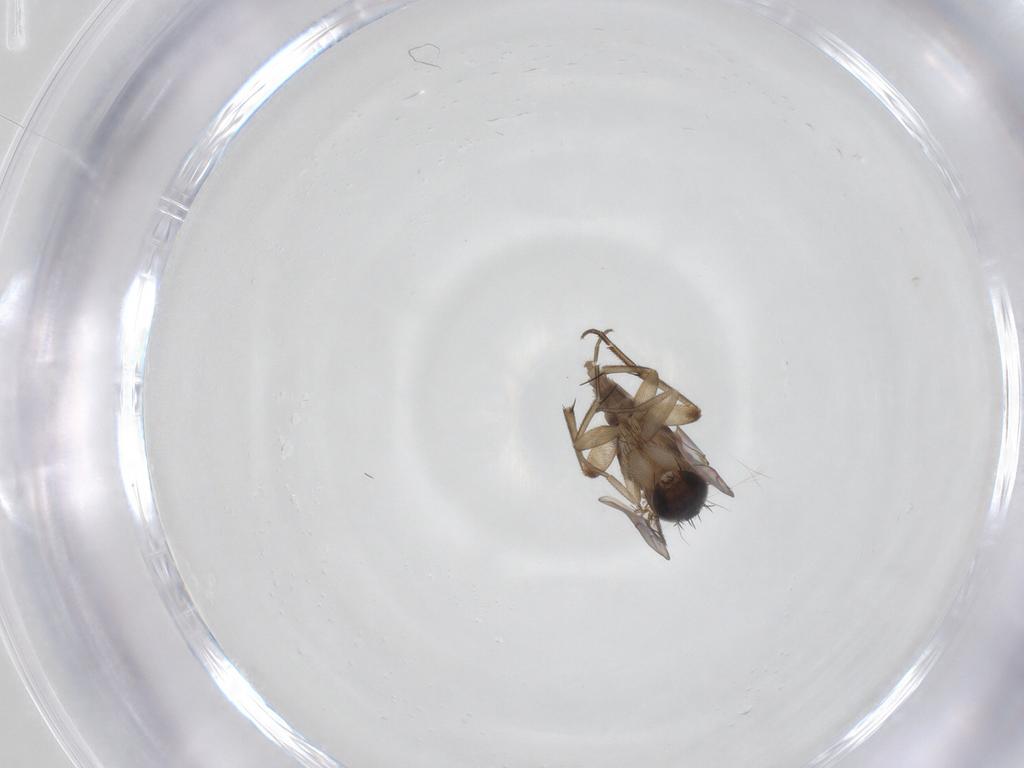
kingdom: Animalia
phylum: Arthropoda
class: Insecta
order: Diptera
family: Phoridae
